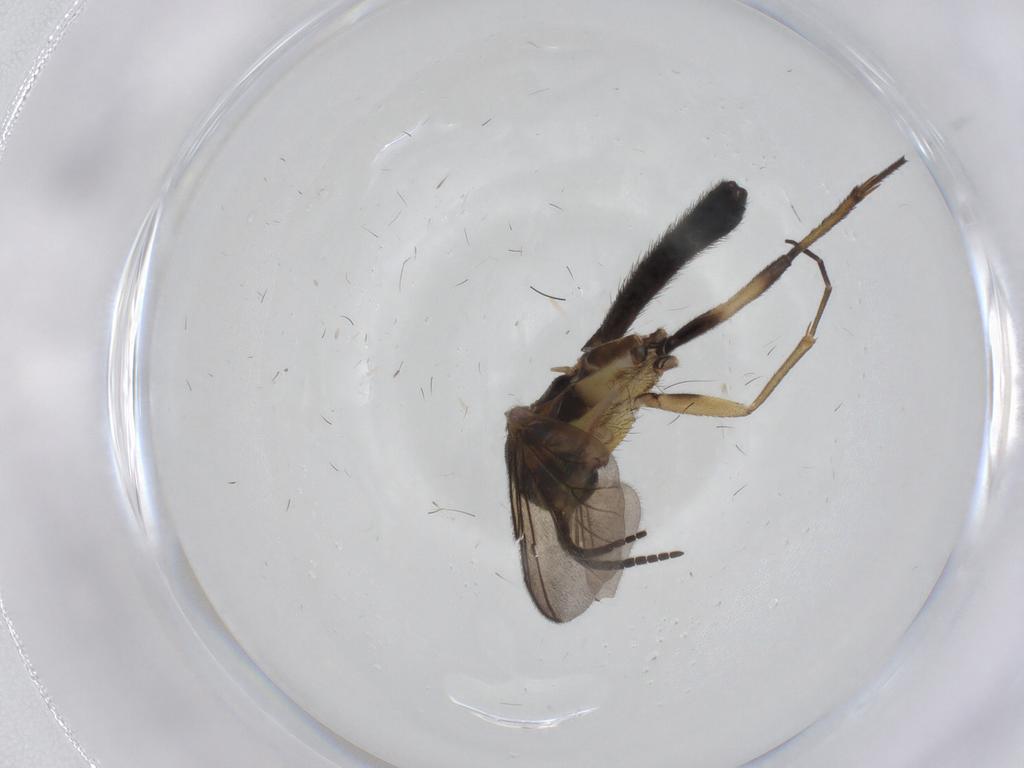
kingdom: Animalia
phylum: Arthropoda
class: Insecta
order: Diptera
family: Mycetophilidae
